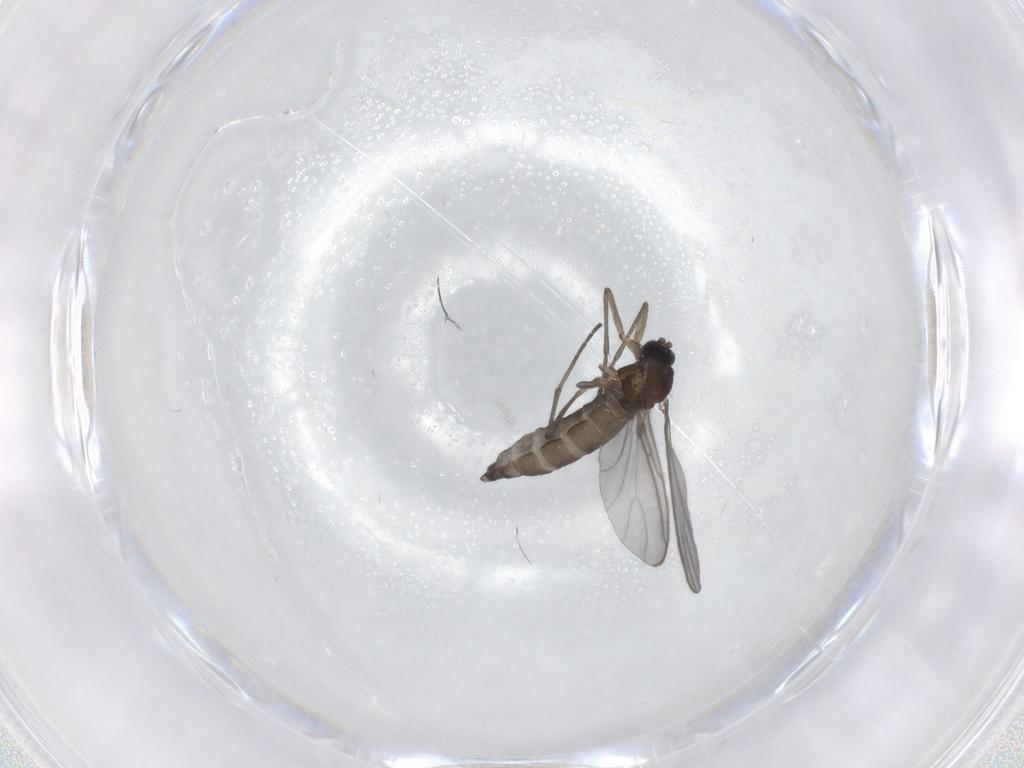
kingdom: Animalia
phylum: Arthropoda
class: Insecta
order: Diptera
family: Sciaridae
